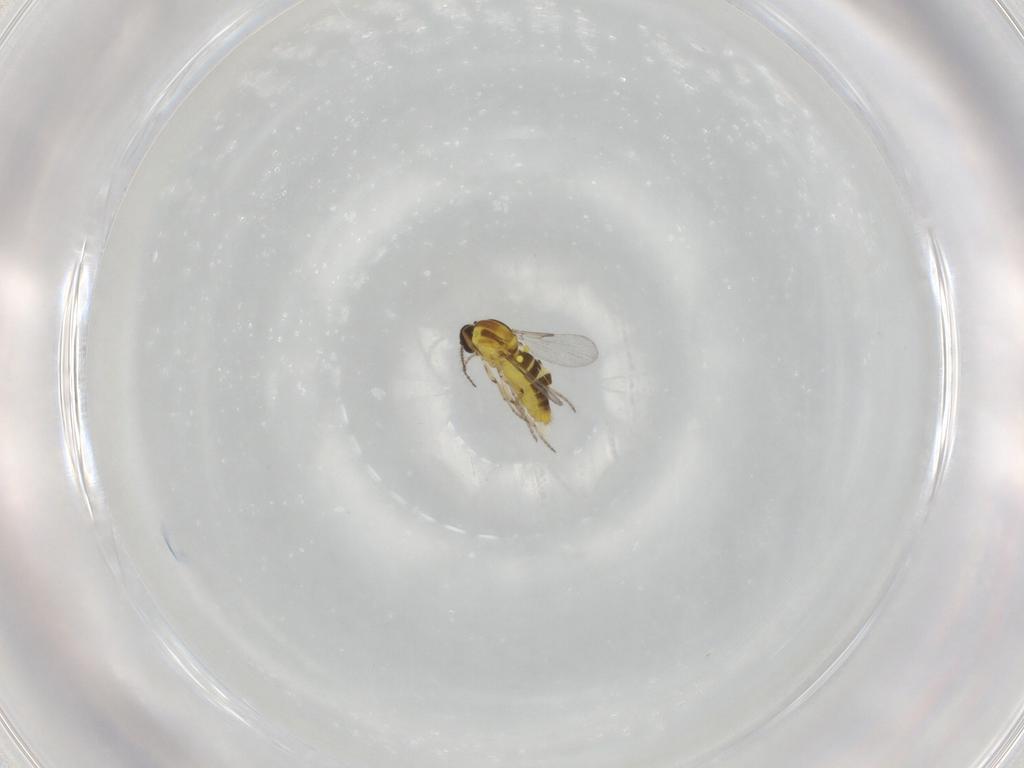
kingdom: Animalia
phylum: Arthropoda
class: Insecta
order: Diptera
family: Ceratopogonidae
